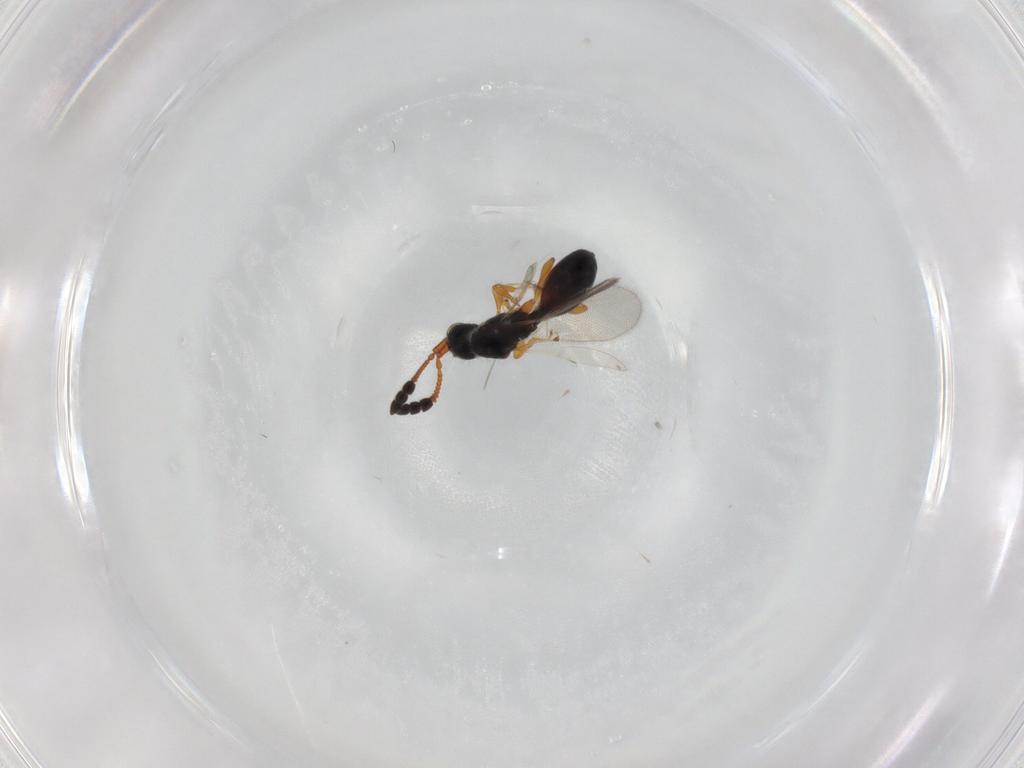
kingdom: Animalia
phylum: Arthropoda
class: Insecta
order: Hymenoptera
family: Diapriidae
